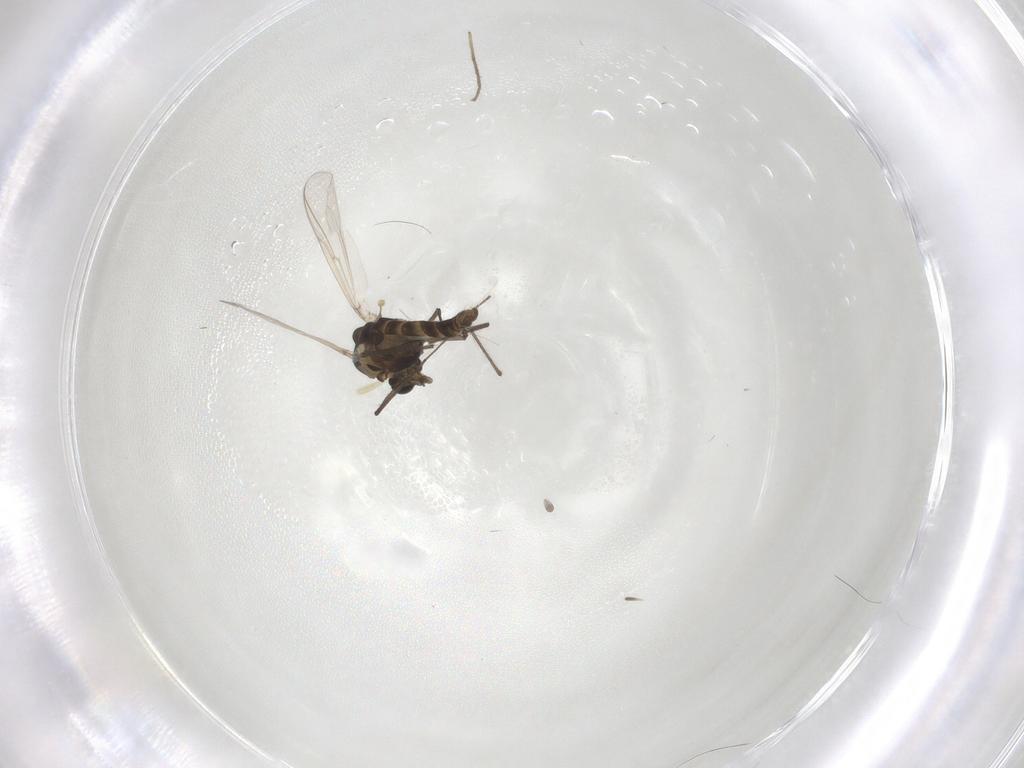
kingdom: Animalia
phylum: Arthropoda
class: Insecta
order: Diptera
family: Chironomidae
